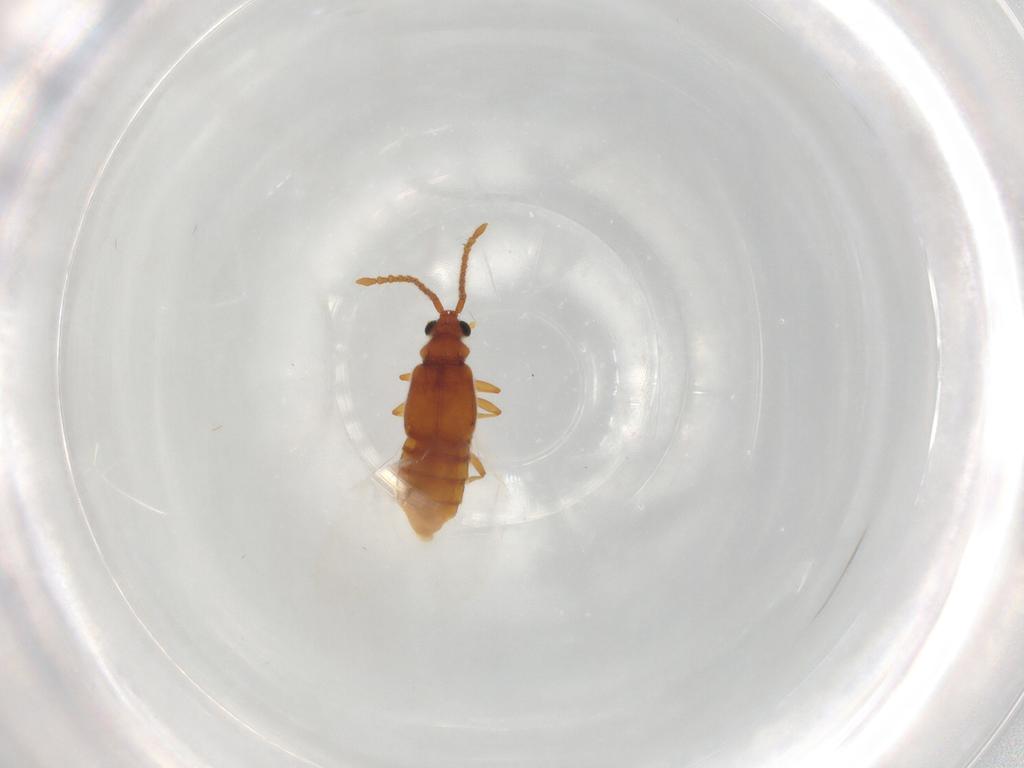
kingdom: Animalia
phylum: Arthropoda
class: Insecta
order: Coleoptera
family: Staphylinidae
